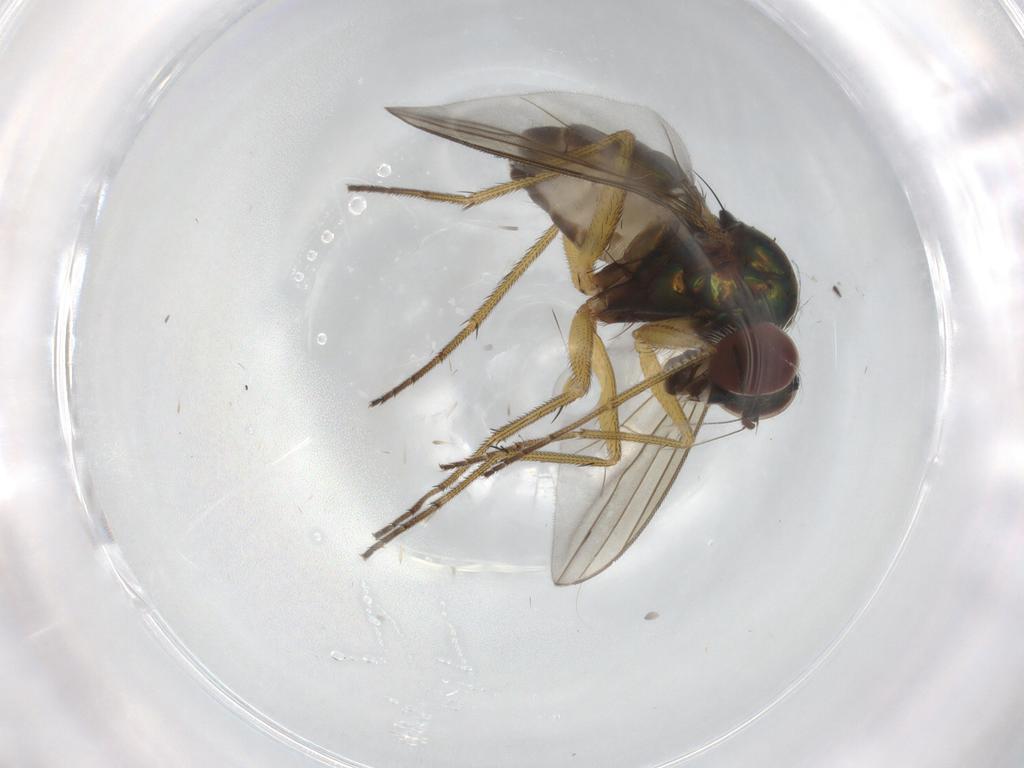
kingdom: Animalia
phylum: Arthropoda
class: Insecta
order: Diptera
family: Dolichopodidae
